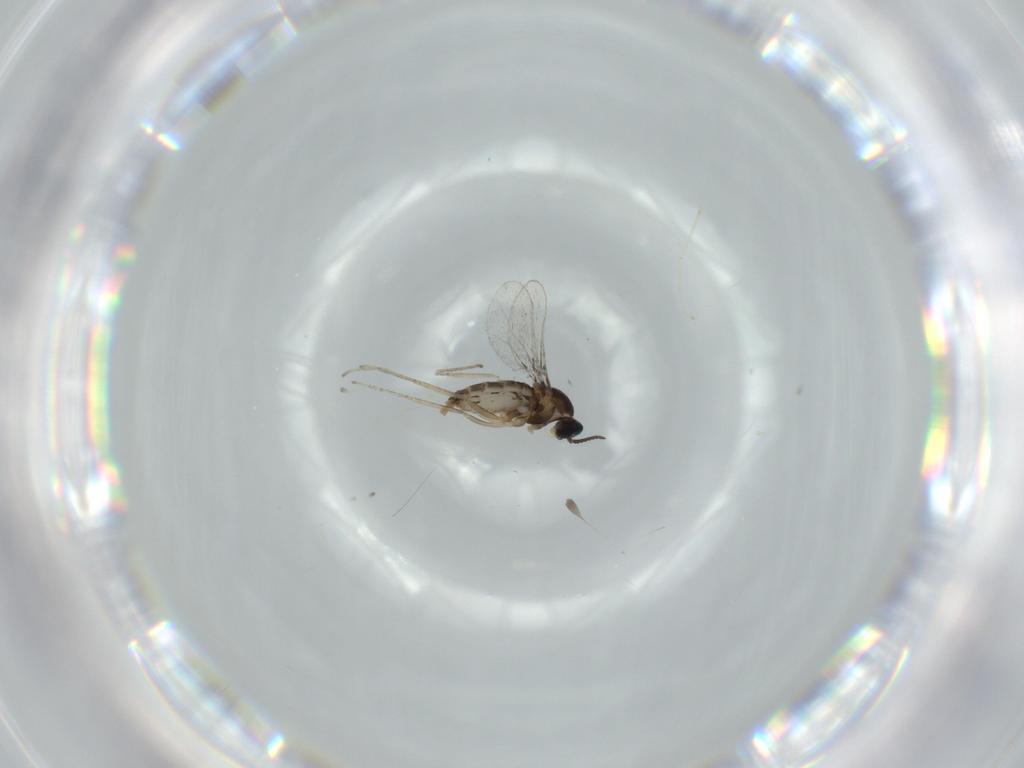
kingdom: Animalia
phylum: Arthropoda
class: Insecta
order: Diptera
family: Cecidomyiidae
